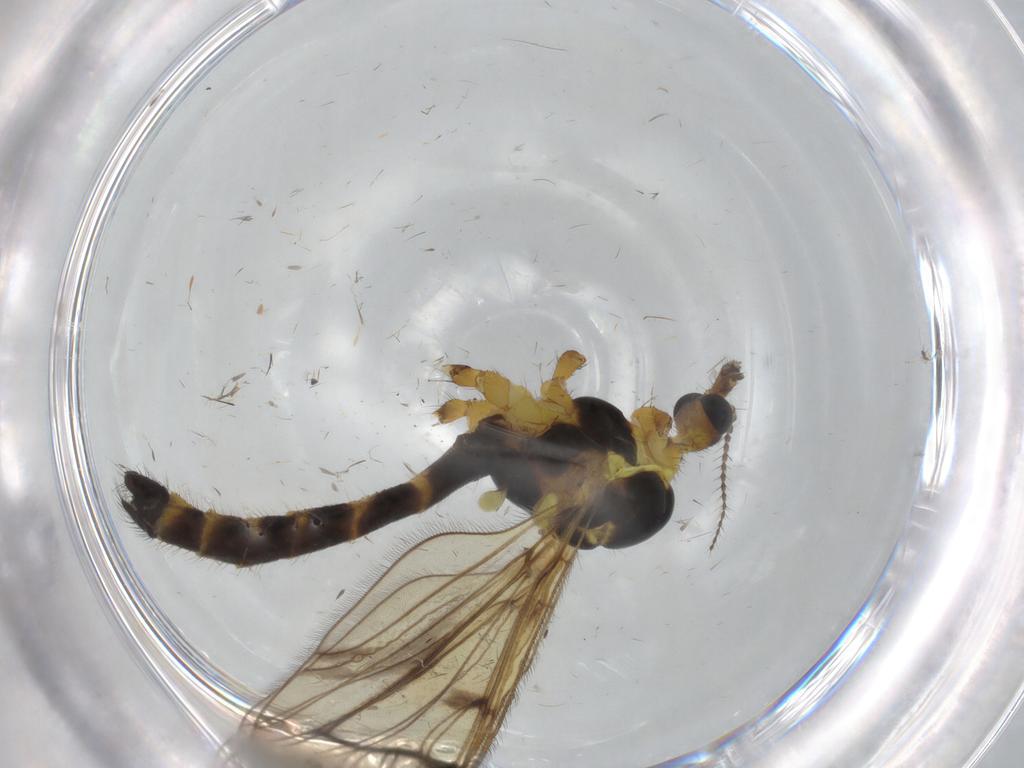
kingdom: Animalia
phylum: Arthropoda
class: Insecta
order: Diptera
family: Limoniidae
